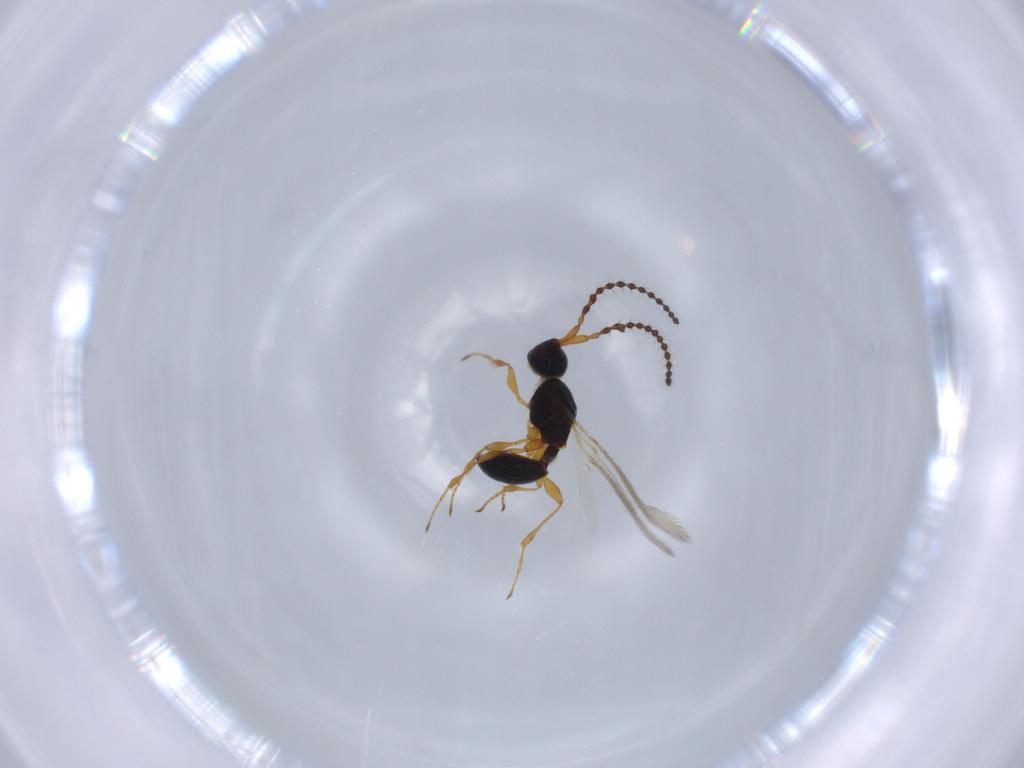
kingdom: Animalia
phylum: Arthropoda
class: Insecta
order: Hymenoptera
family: Diapriidae
